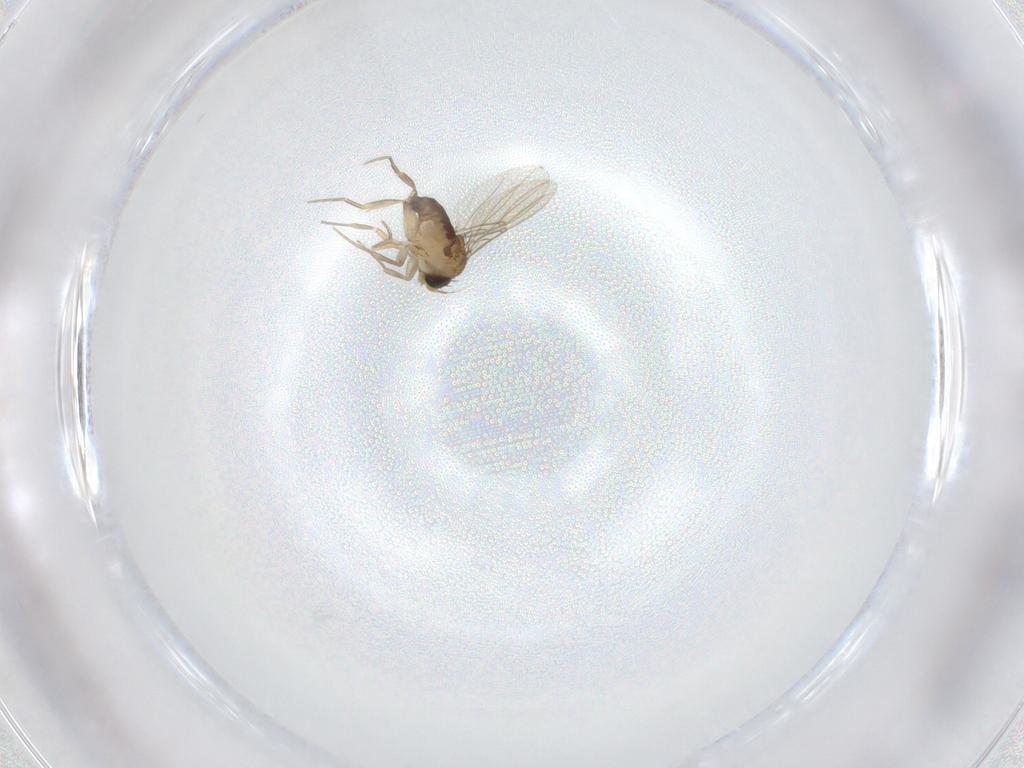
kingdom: Animalia
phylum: Arthropoda
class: Insecta
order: Diptera
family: Phoridae
